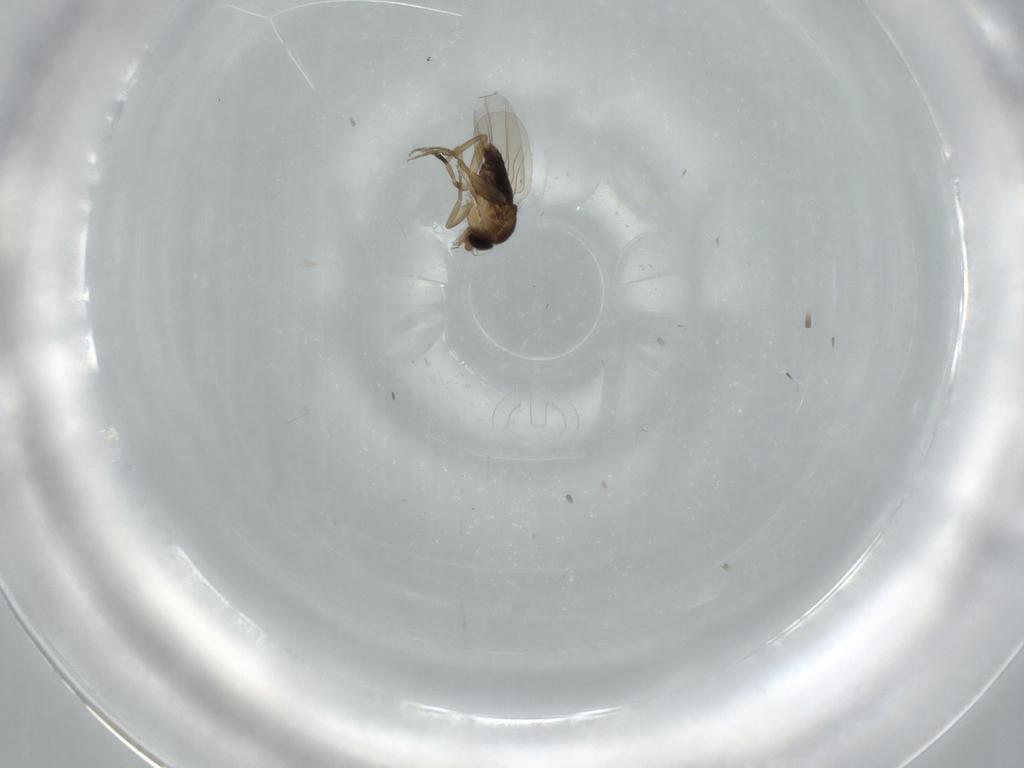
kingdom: Animalia
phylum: Arthropoda
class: Insecta
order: Diptera
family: Phoridae
